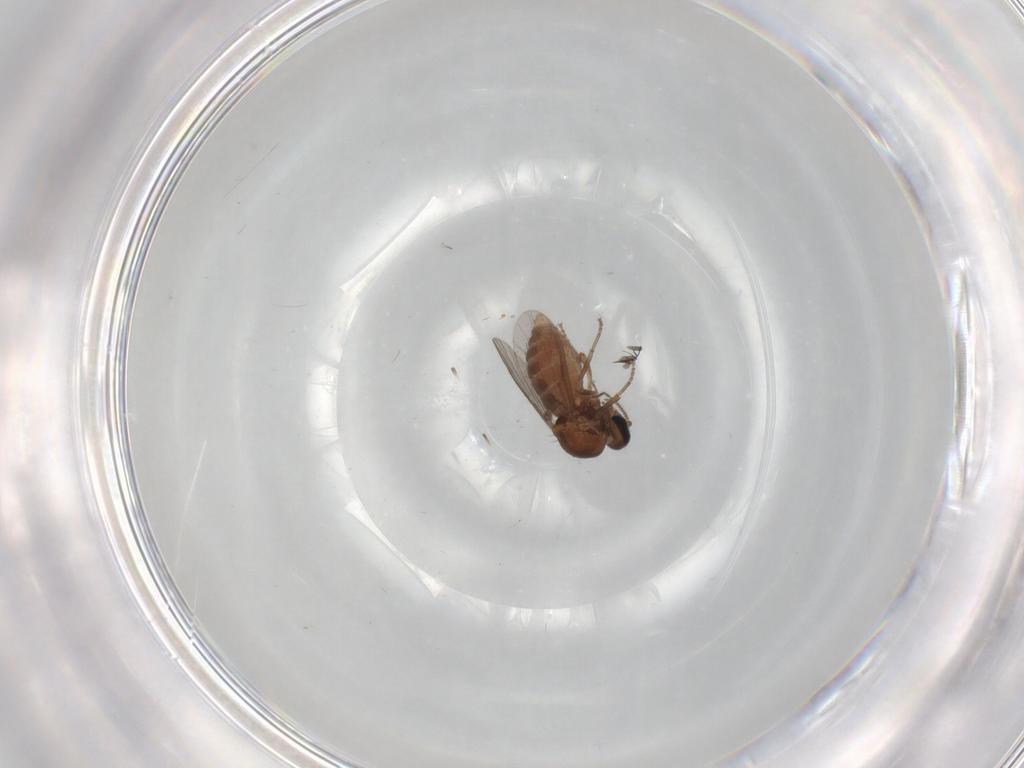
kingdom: Animalia
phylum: Arthropoda
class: Insecta
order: Diptera
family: Ceratopogonidae
